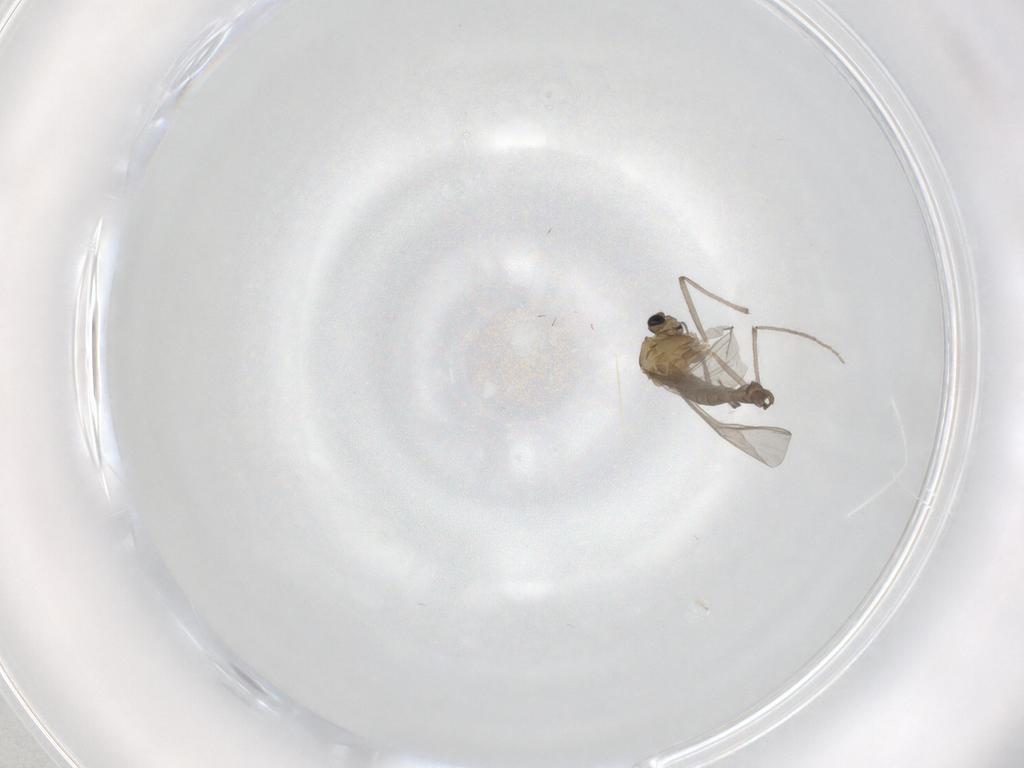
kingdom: Animalia
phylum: Arthropoda
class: Insecta
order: Diptera
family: Chironomidae
